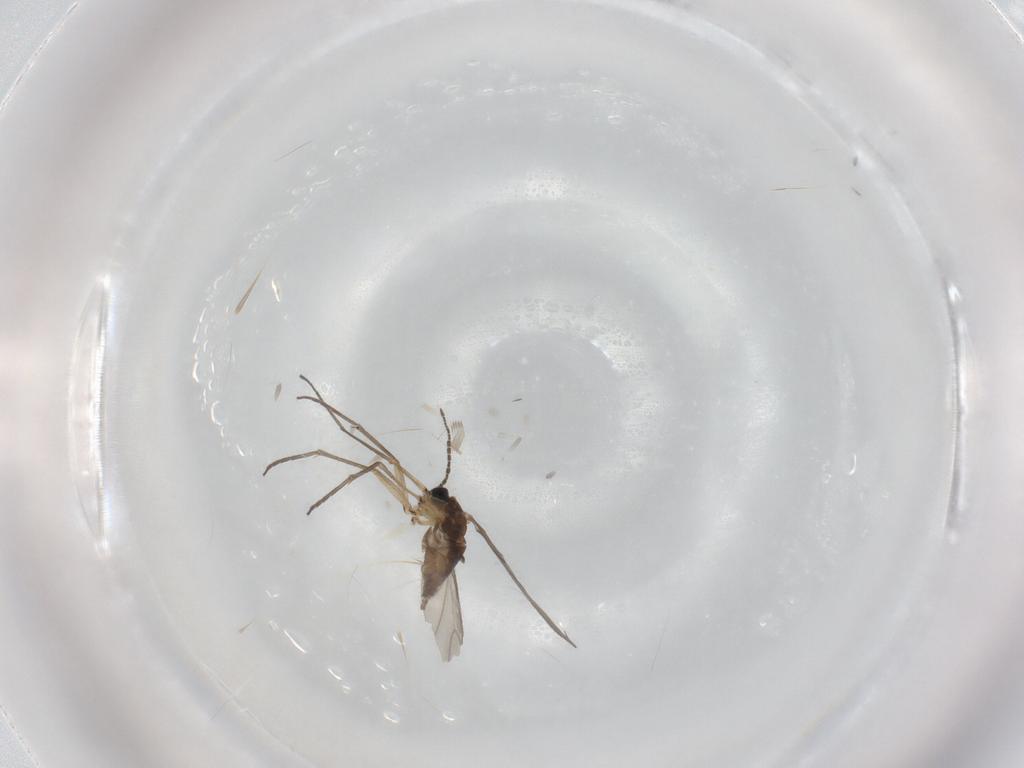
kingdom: Animalia
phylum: Arthropoda
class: Insecta
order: Diptera
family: Sciaridae
